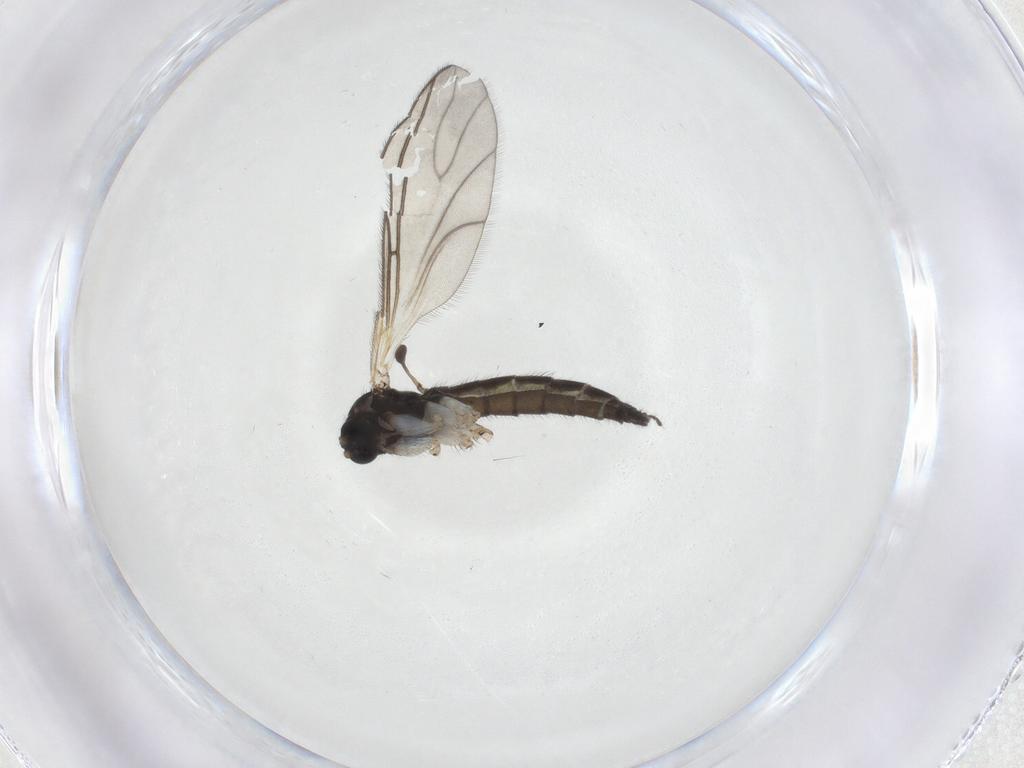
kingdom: Animalia
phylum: Arthropoda
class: Insecta
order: Diptera
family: Sciaridae
